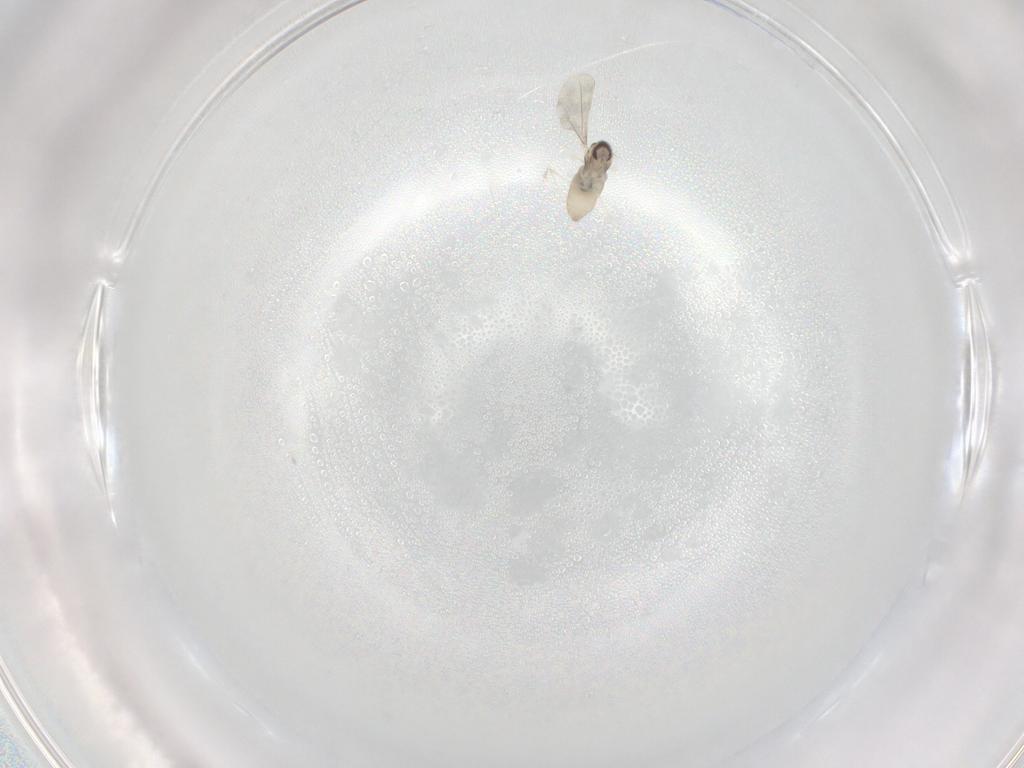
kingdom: Animalia
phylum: Arthropoda
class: Insecta
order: Diptera
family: Cecidomyiidae
